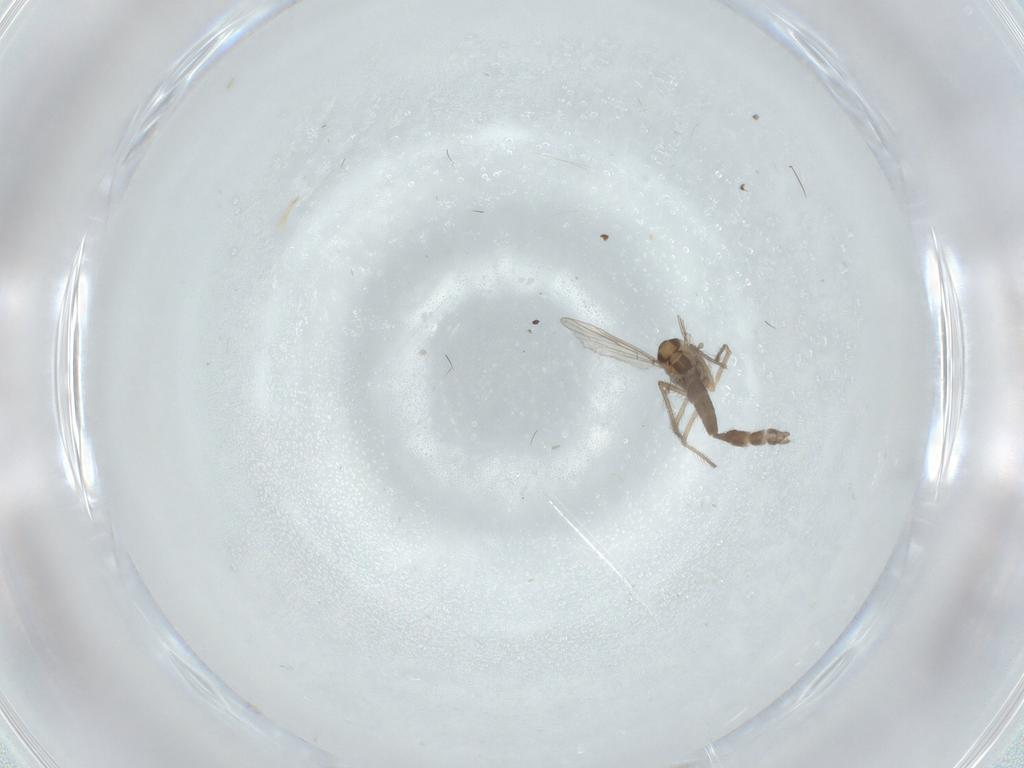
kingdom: Animalia
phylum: Arthropoda
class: Insecta
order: Diptera
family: Chironomidae
